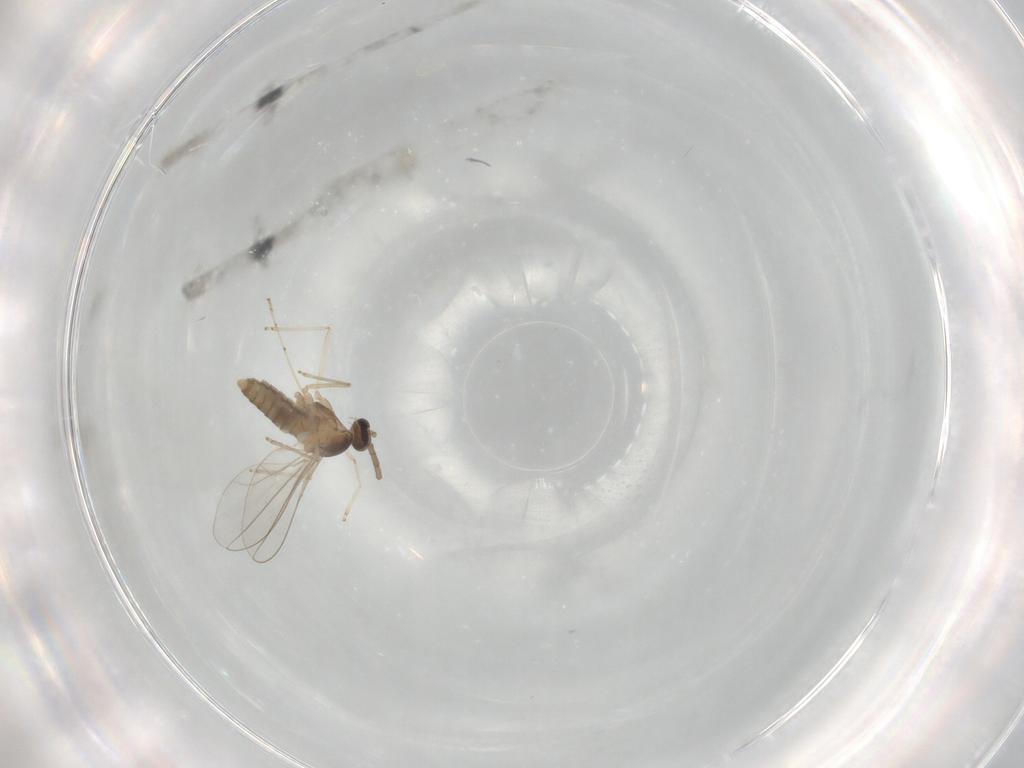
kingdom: Animalia
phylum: Arthropoda
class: Insecta
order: Diptera
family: Cecidomyiidae
